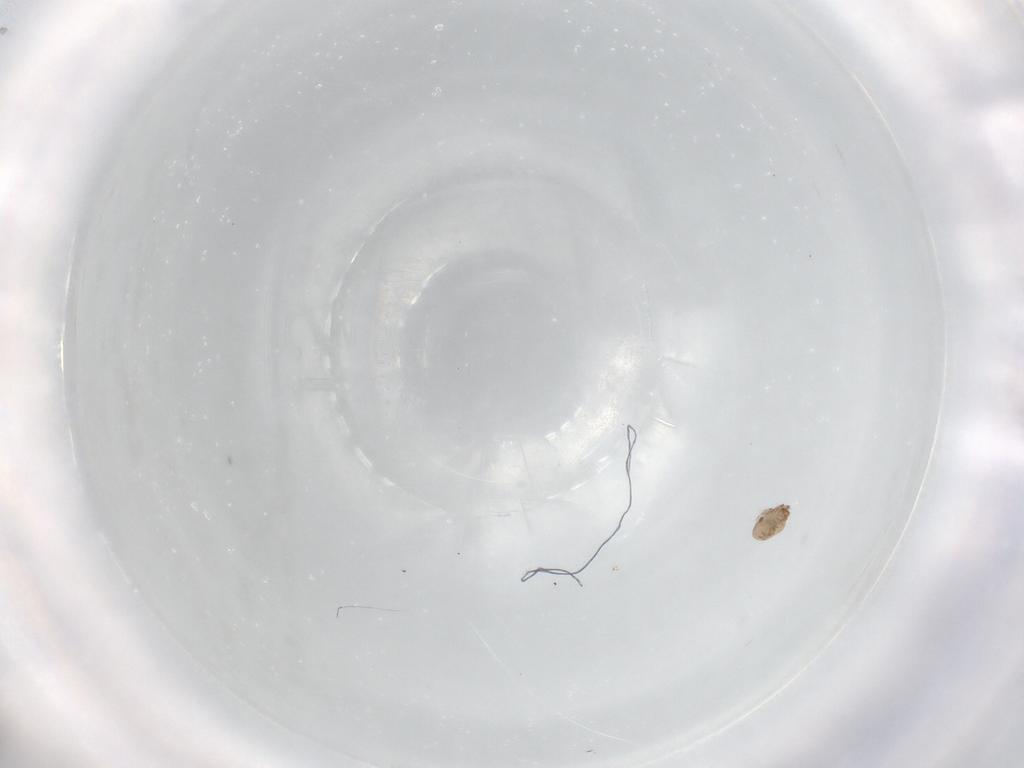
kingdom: Animalia
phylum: Arthropoda
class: Arachnida
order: Sarcoptiformes
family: Phenopelopidae
